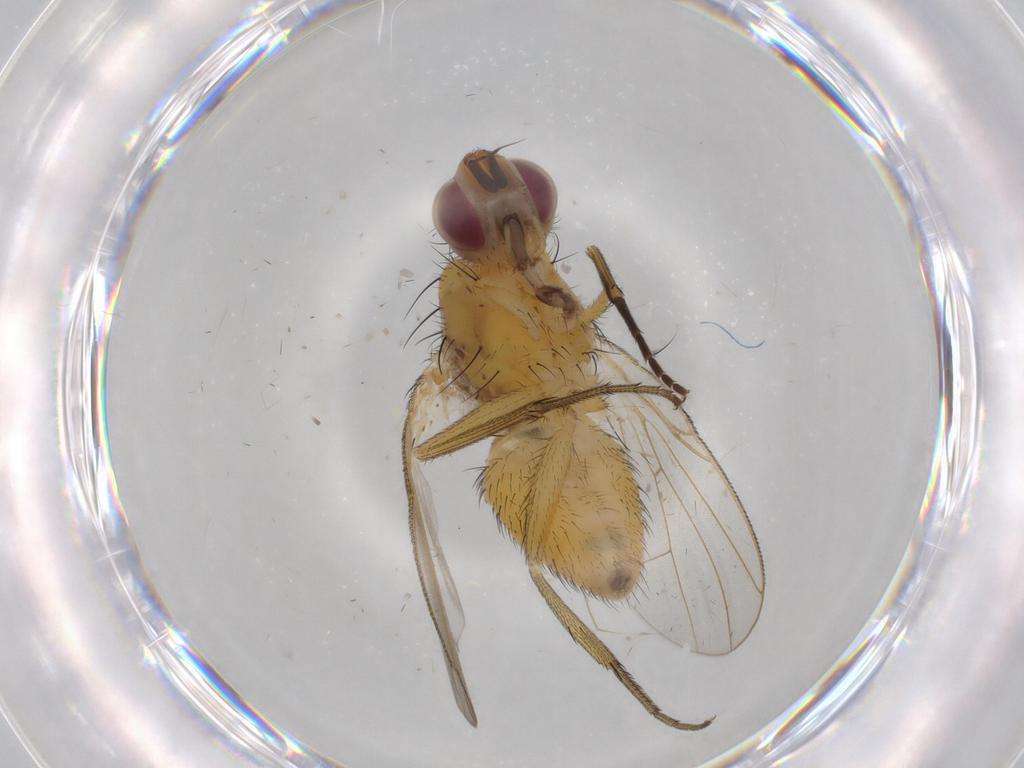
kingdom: Animalia
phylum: Arthropoda
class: Insecta
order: Diptera
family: Muscidae
